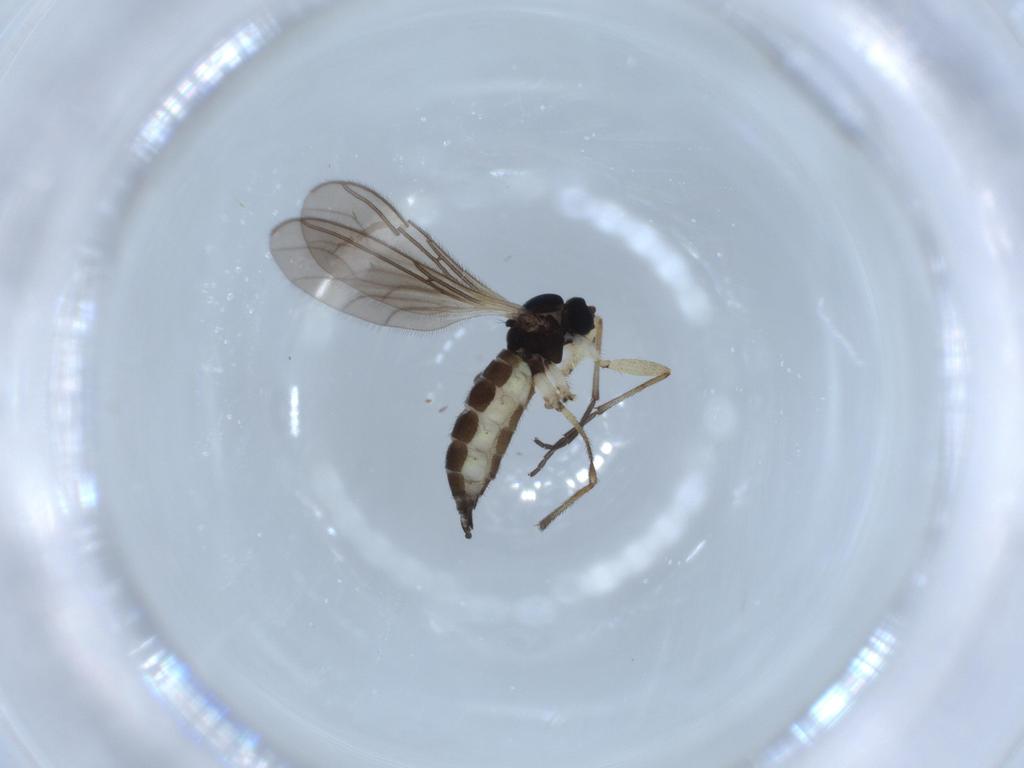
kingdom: Animalia
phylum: Arthropoda
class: Insecta
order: Diptera
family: Sciaridae
